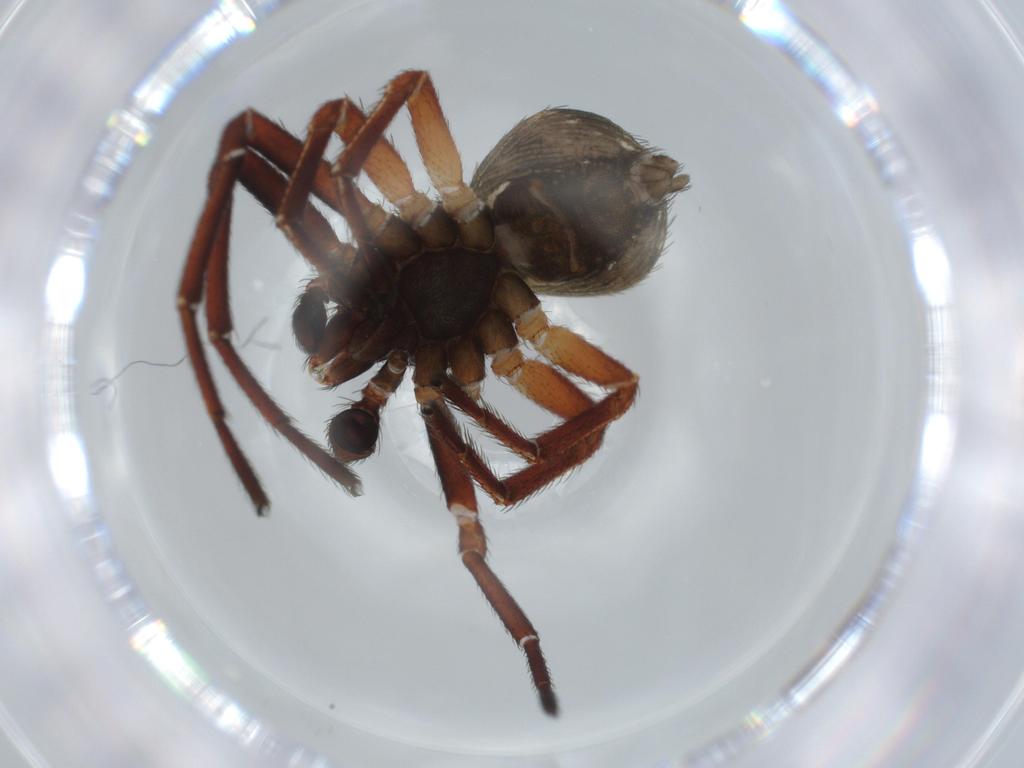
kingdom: Animalia
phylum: Arthropoda
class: Arachnida
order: Araneae
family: Thomisidae
